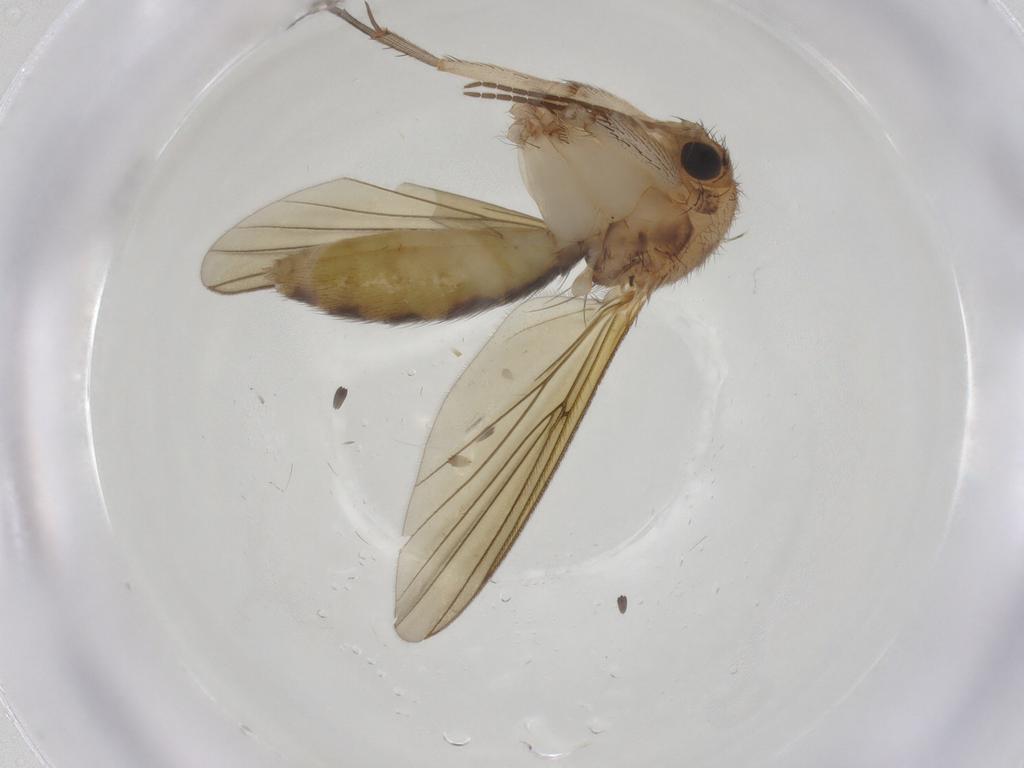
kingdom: Animalia
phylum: Arthropoda
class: Insecta
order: Diptera
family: Mycetophilidae
